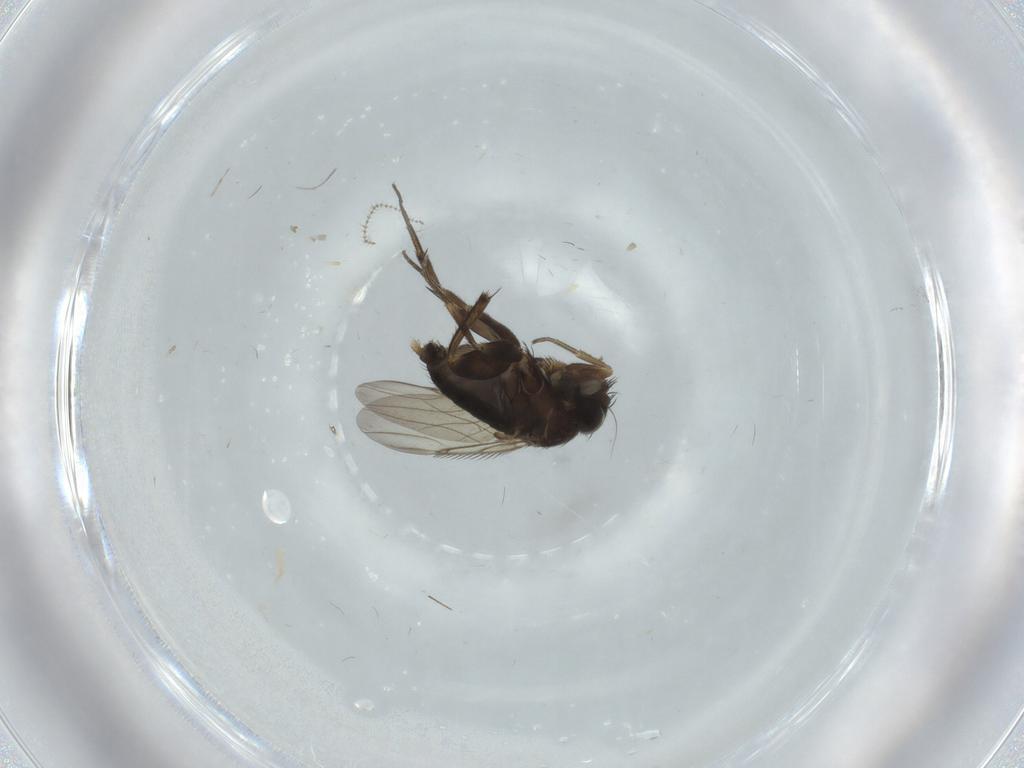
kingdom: Animalia
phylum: Arthropoda
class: Insecta
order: Diptera
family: Phoridae
